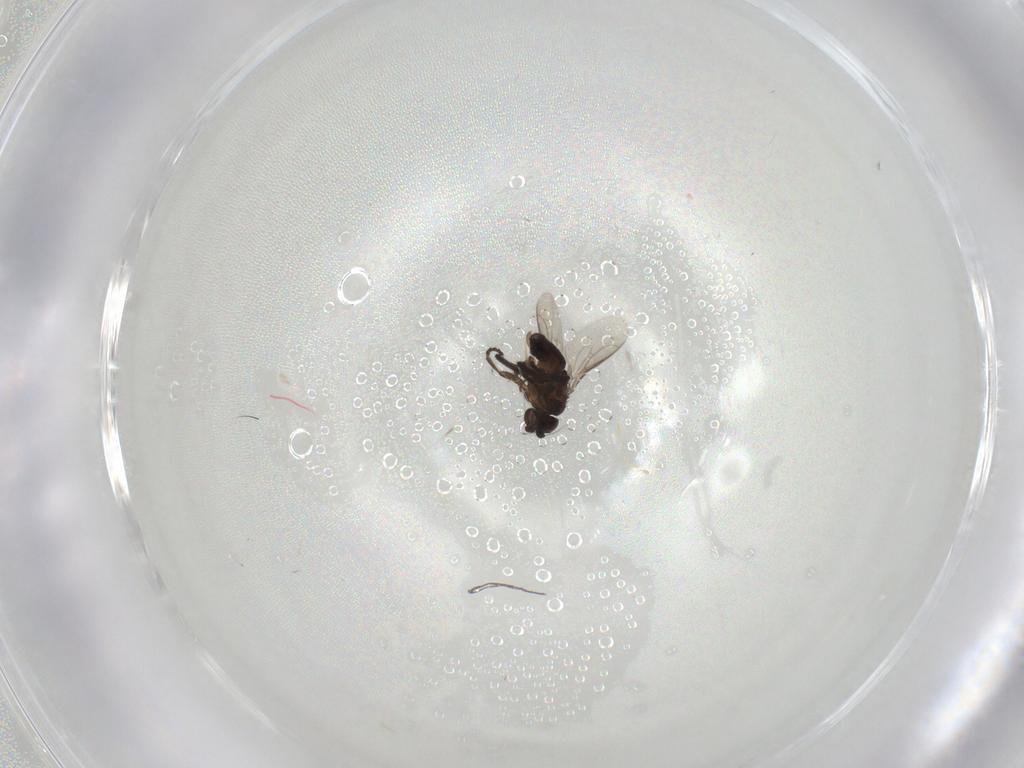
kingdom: Animalia
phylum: Arthropoda
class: Insecta
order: Diptera
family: Sphaeroceridae
